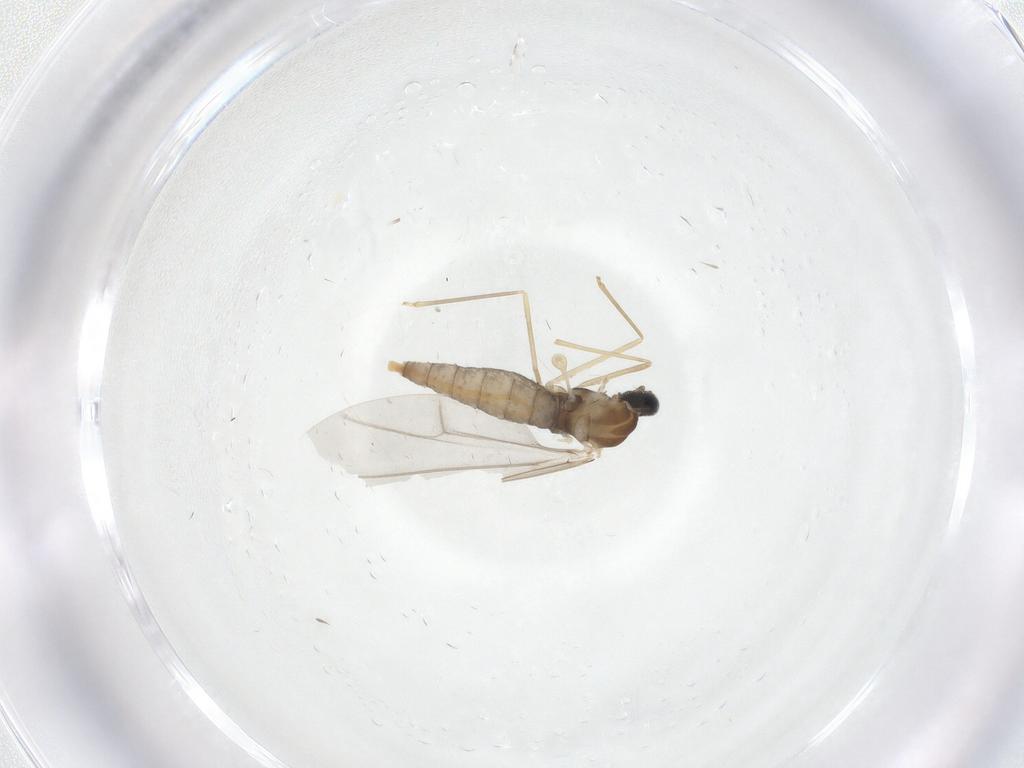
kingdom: Animalia
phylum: Arthropoda
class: Insecta
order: Diptera
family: Cecidomyiidae
